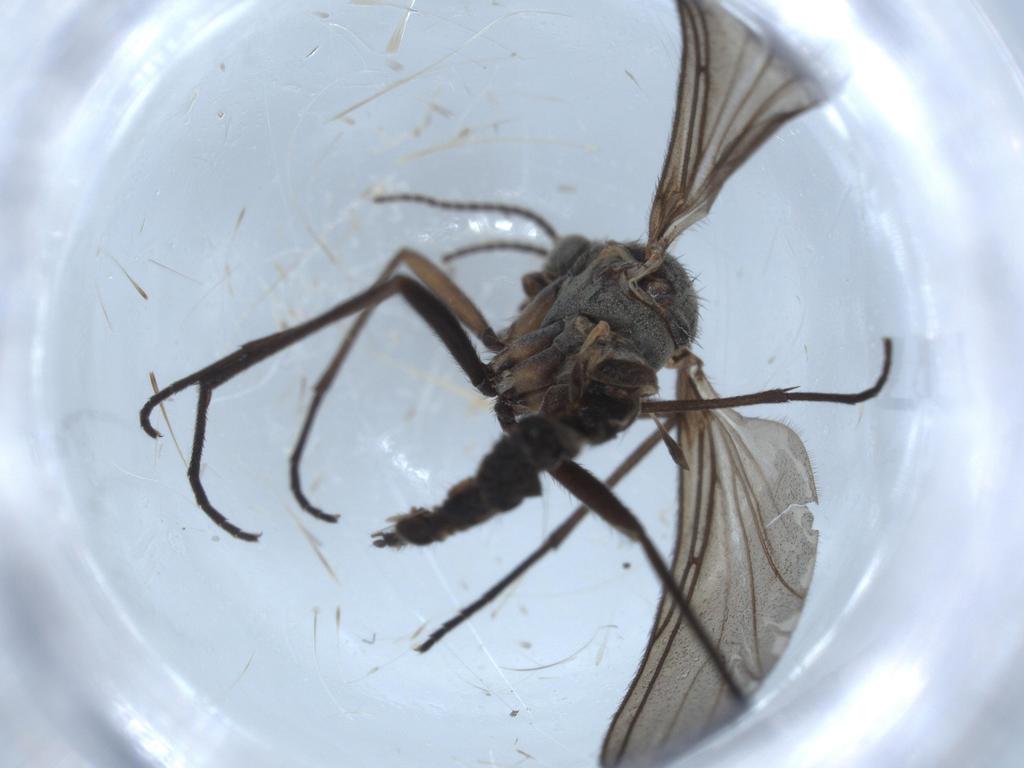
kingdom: Animalia
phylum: Arthropoda
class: Insecta
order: Diptera
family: Sciaridae
